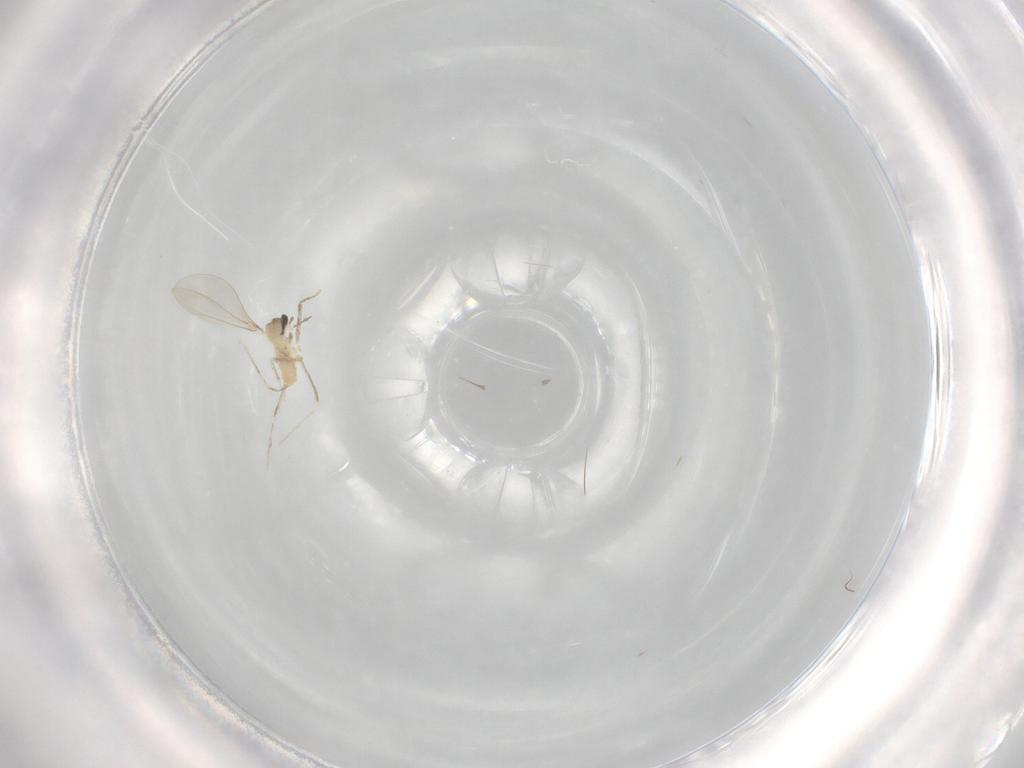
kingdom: Animalia
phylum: Arthropoda
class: Insecta
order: Diptera
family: Cecidomyiidae
